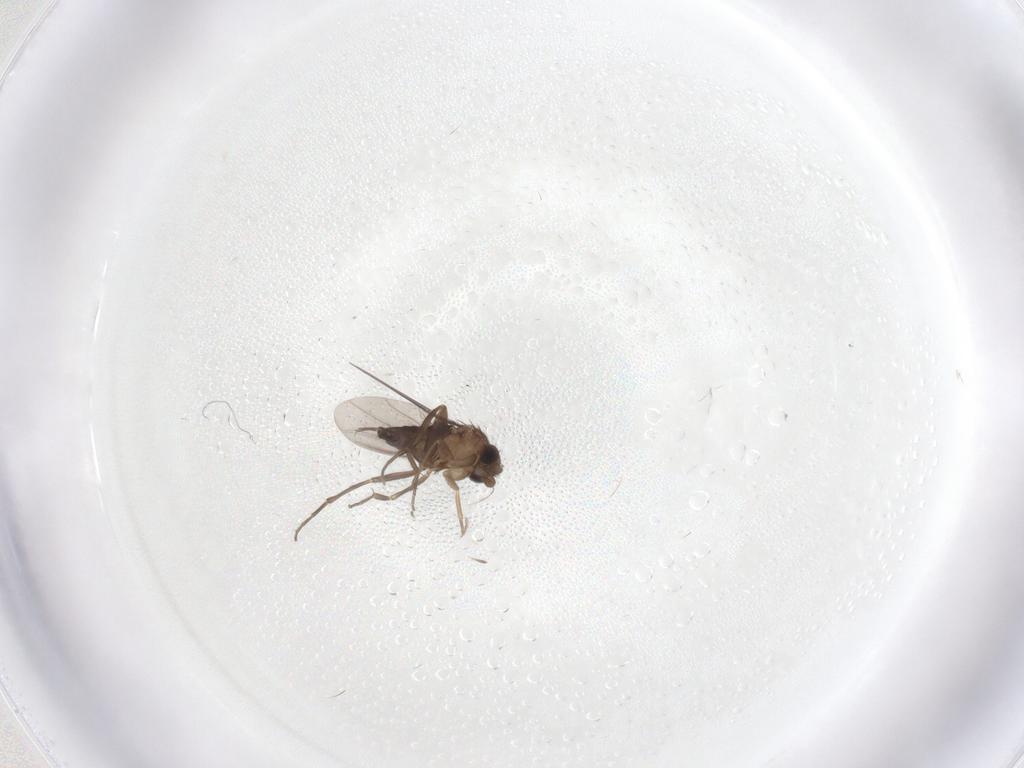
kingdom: Animalia
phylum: Arthropoda
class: Insecta
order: Diptera
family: Phoridae
